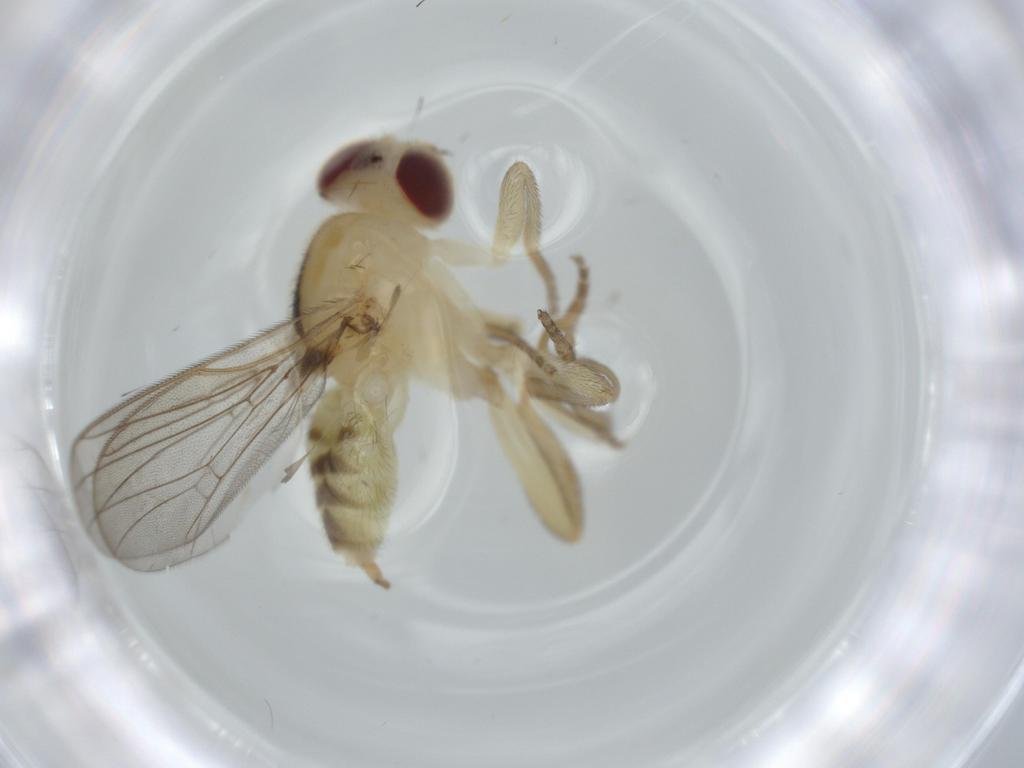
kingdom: Animalia
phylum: Arthropoda
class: Insecta
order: Diptera
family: Chloropidae
